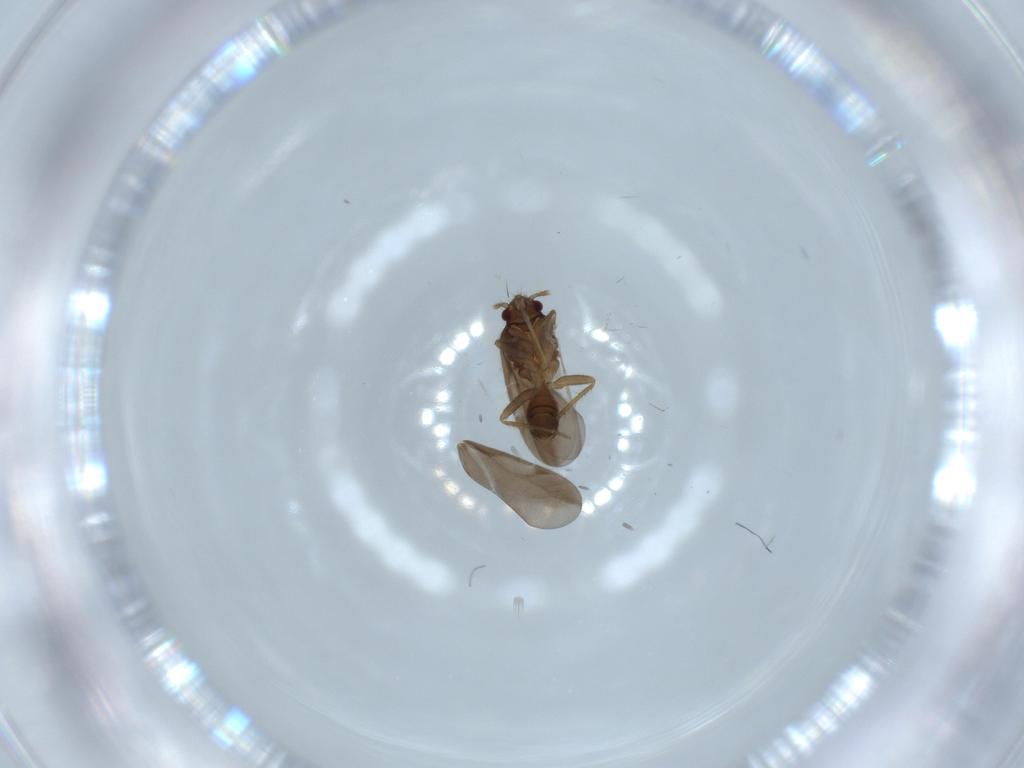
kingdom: Animalia
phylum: Arthropoda
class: Insecta
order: Hemiptera
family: Ceratocombidae
